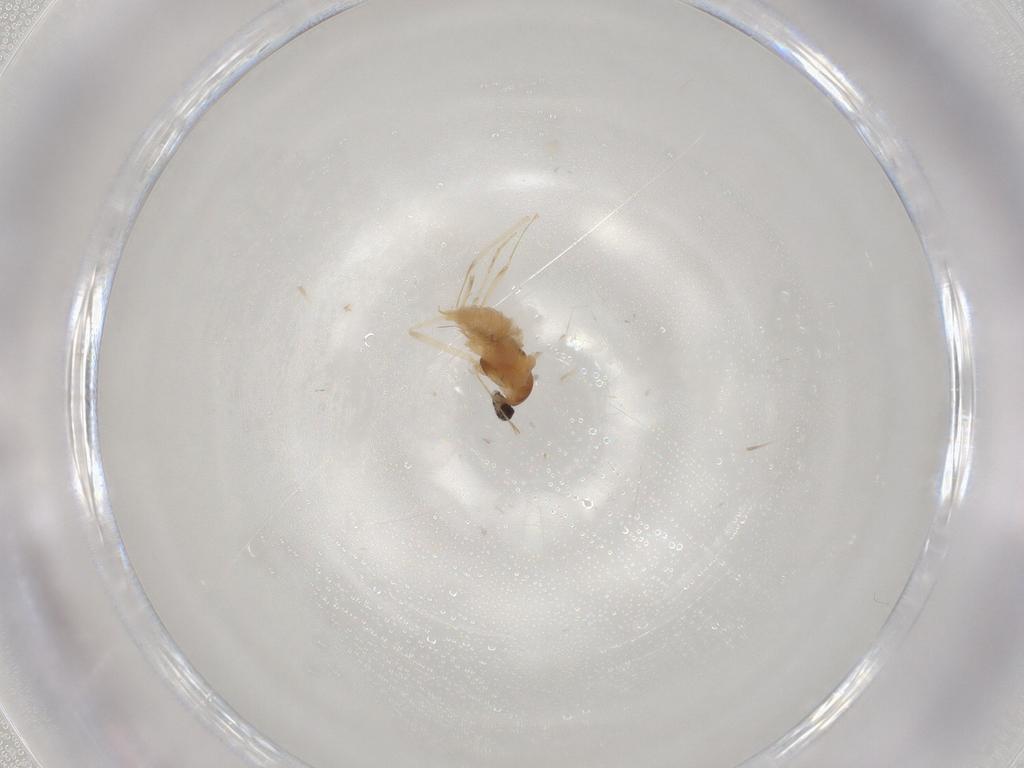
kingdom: Animalia
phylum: Arthropoda
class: Insecta
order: Diptera
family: Cecidomyiidae
